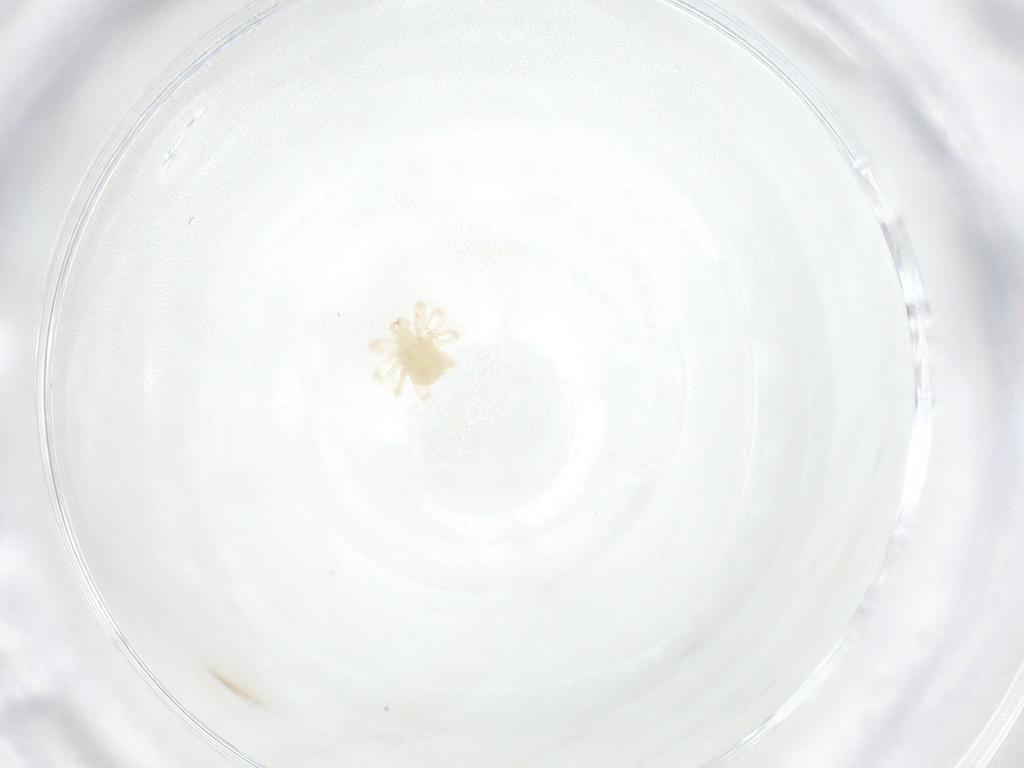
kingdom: Animalia
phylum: Arthropoda
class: Arachnida
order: Trombidiformes
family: Anystidae
